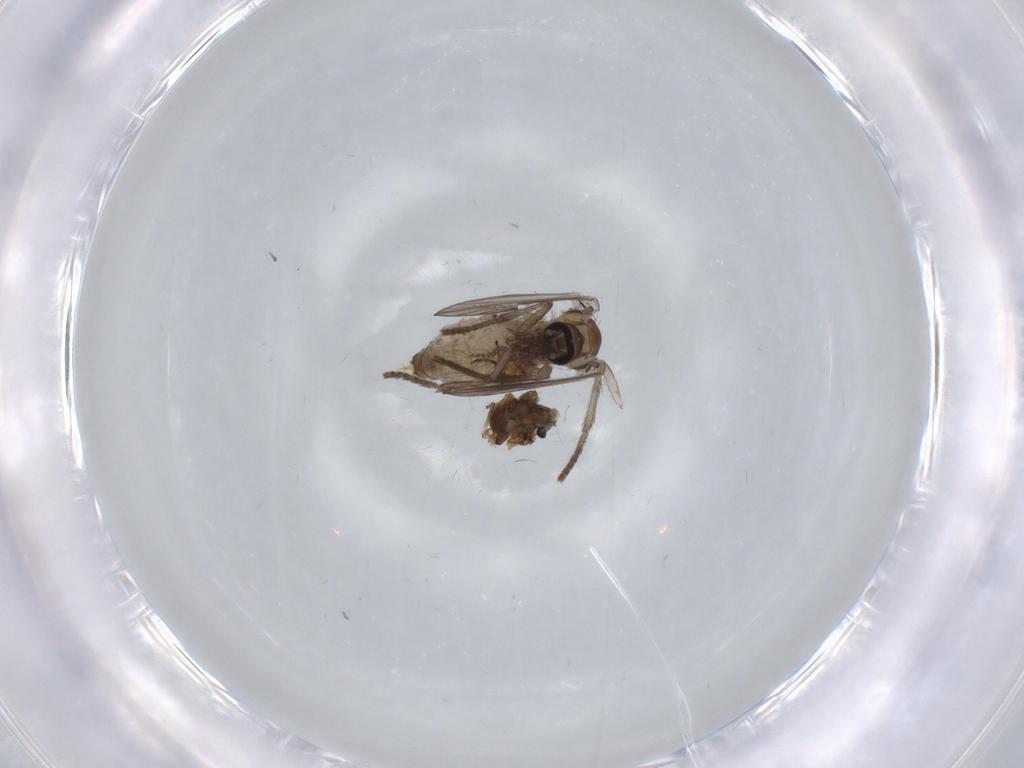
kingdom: Animalia
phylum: Arthropoda
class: Insecta
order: Diptera
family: Chironomidae
